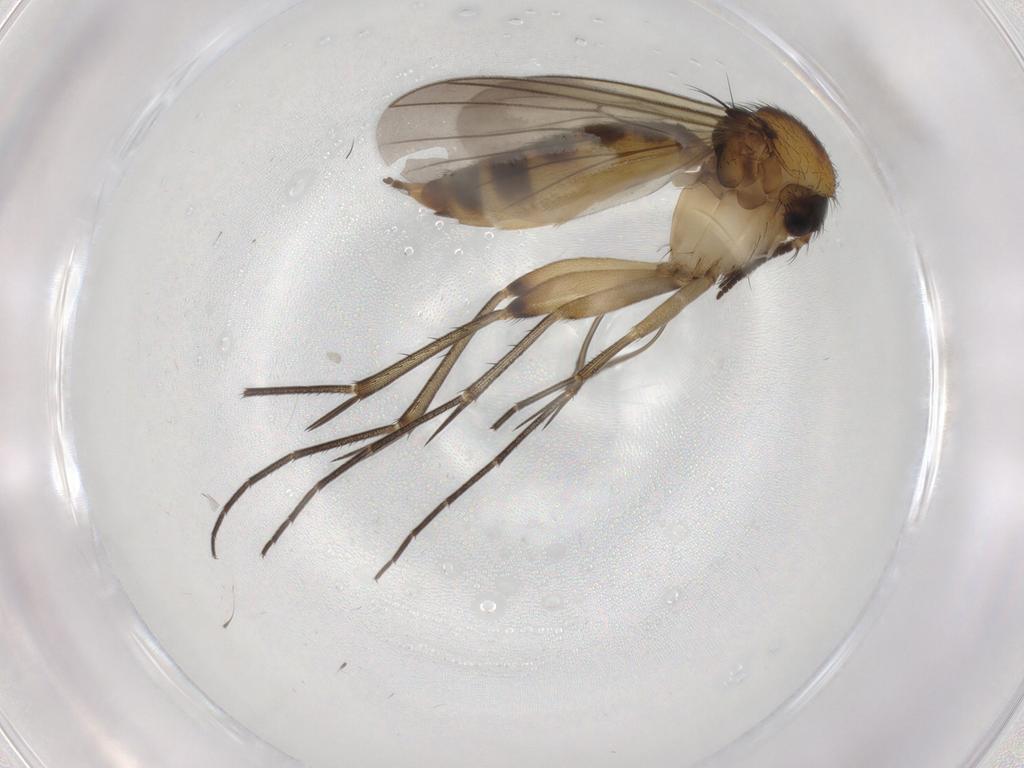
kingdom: Animalia
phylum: Arthropoda
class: Insecta
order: Diptera
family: Mycetophilidae
